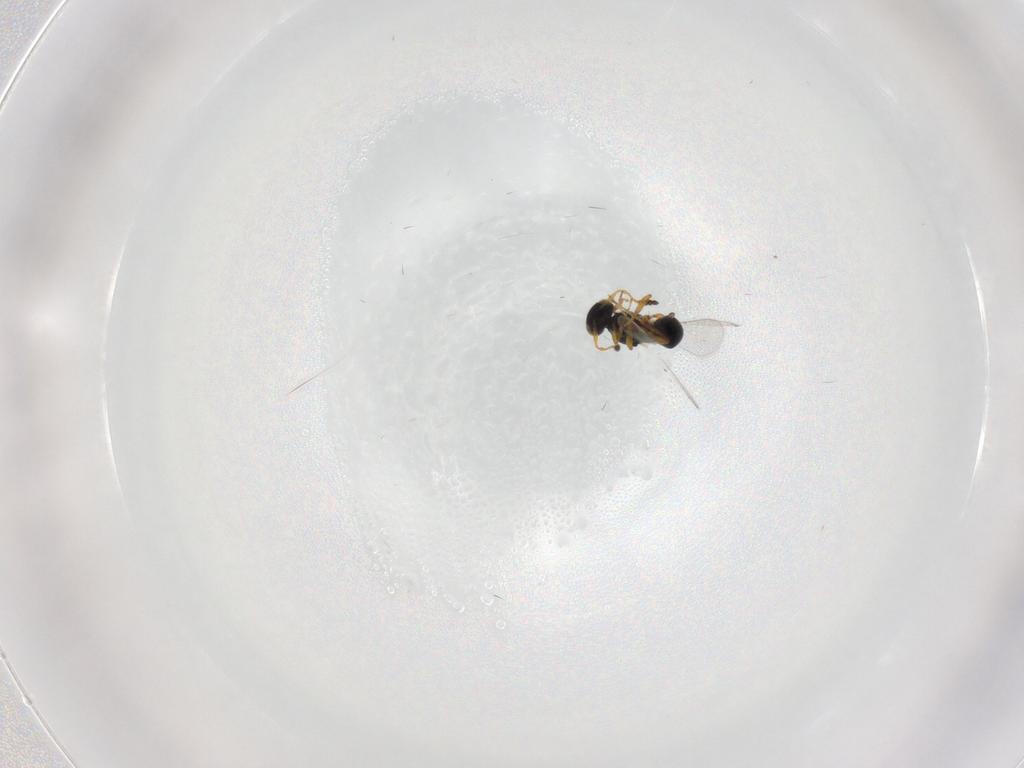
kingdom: Animalia
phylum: Arthropoda
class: Insecta
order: Hymenoptera
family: Platygastridae
